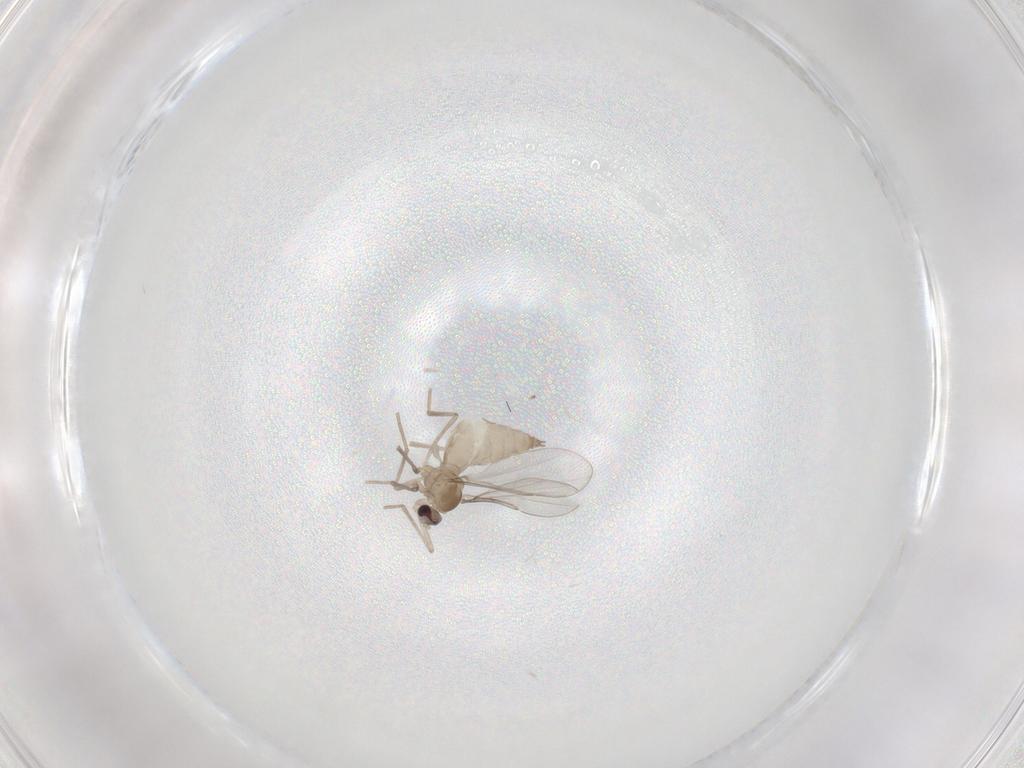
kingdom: Animalia
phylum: Arthropoda
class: Insecta
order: Diptera
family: Cecidomyiidae
